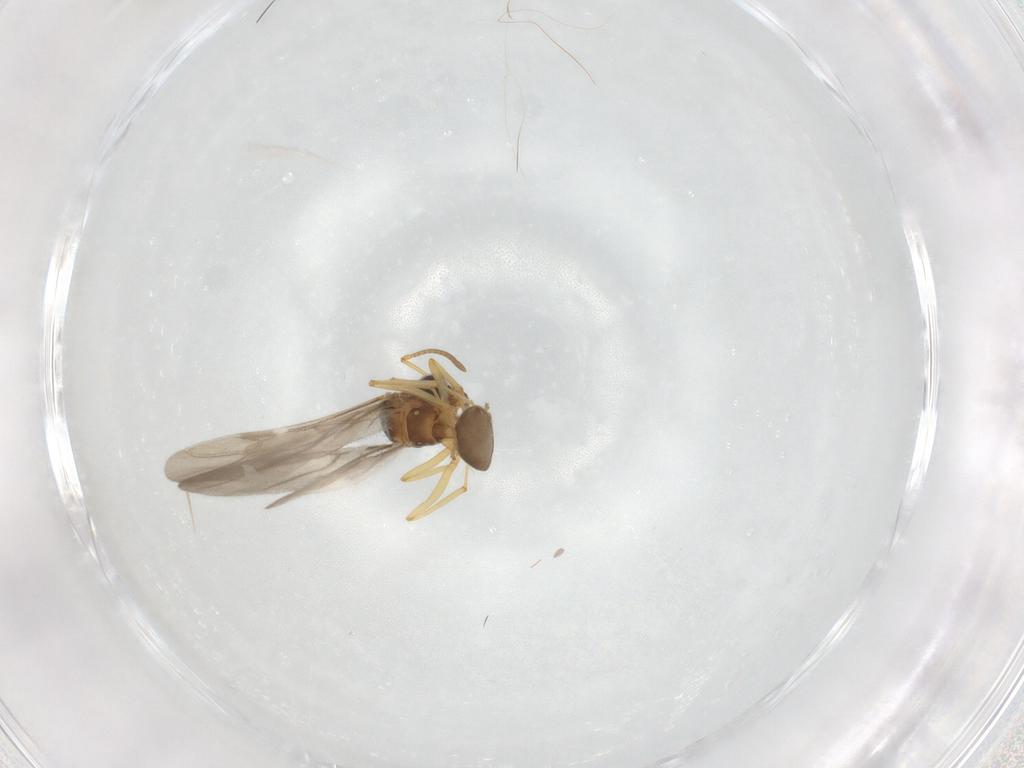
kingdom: Animalia
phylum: Arthropoda
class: Insecta
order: Hymenoptera
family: Formicidae
